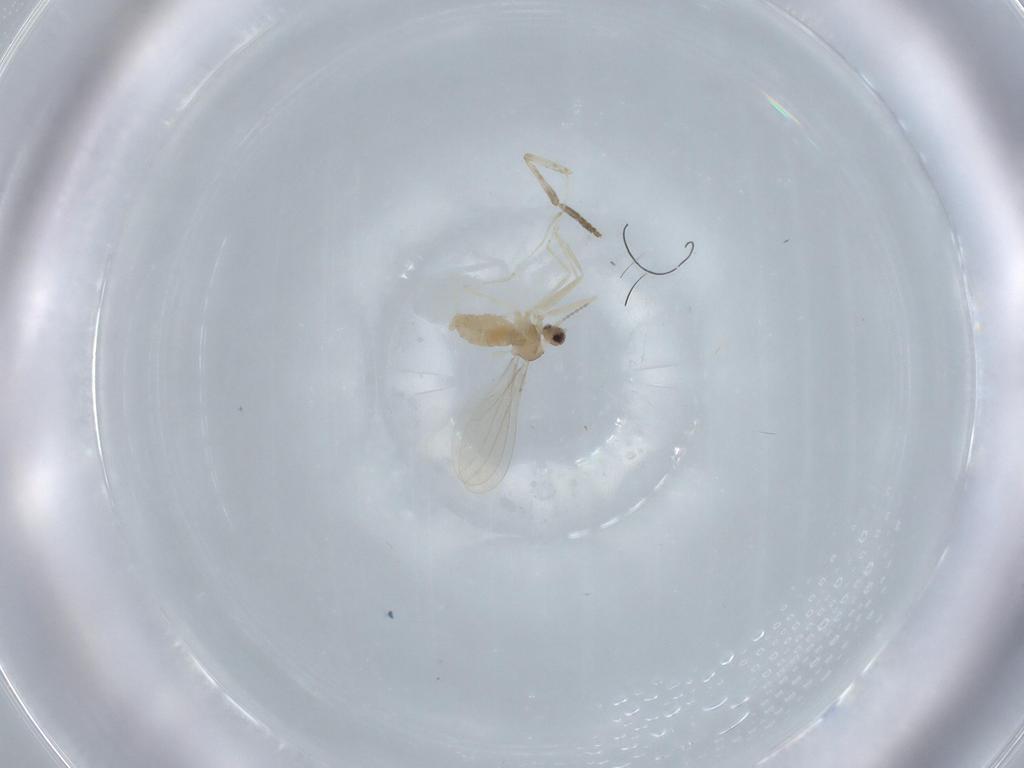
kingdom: Animalia
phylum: Arthropoda
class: Insecta
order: Diptera
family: Cecidomyiidae
